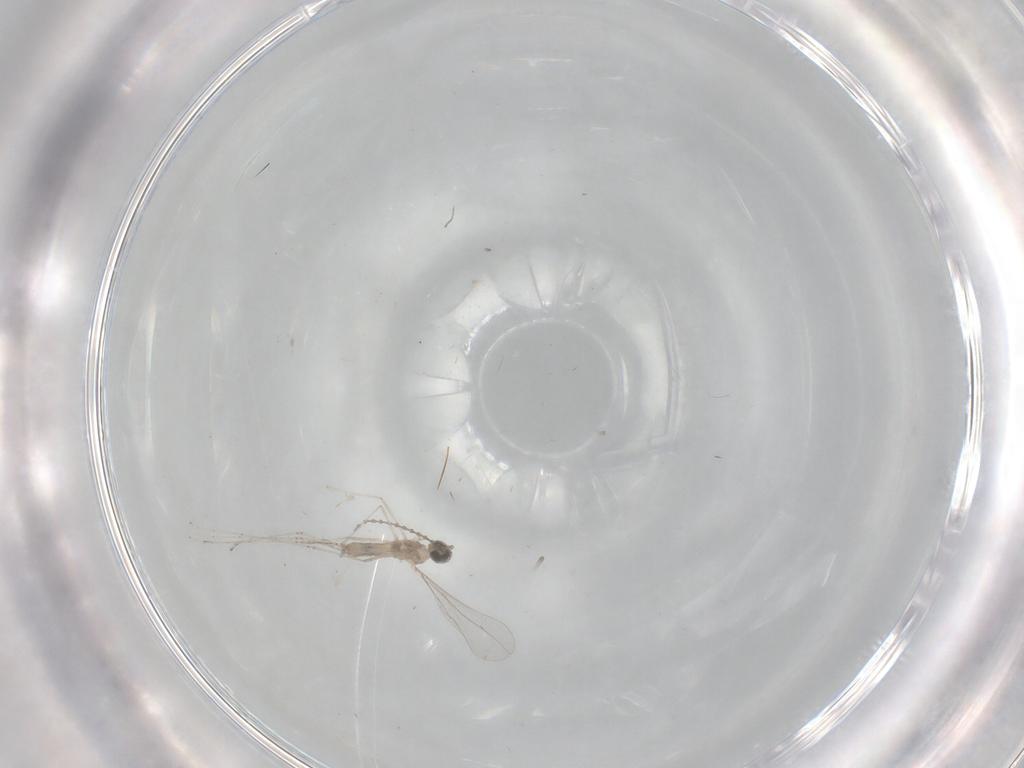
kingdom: Animalia
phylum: Arthropoda
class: Insecta
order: Diptera
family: Cecidomyiidae
